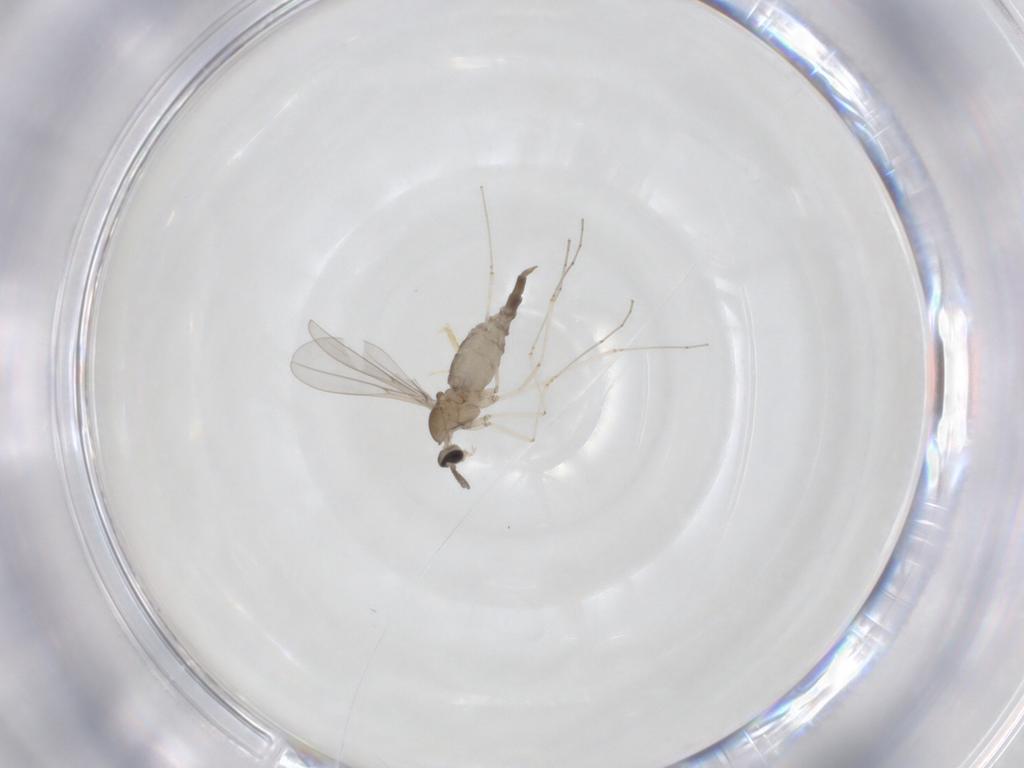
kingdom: Animalia
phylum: Arthropoda
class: Insecta
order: Diptera
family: Cecidomyiidae
